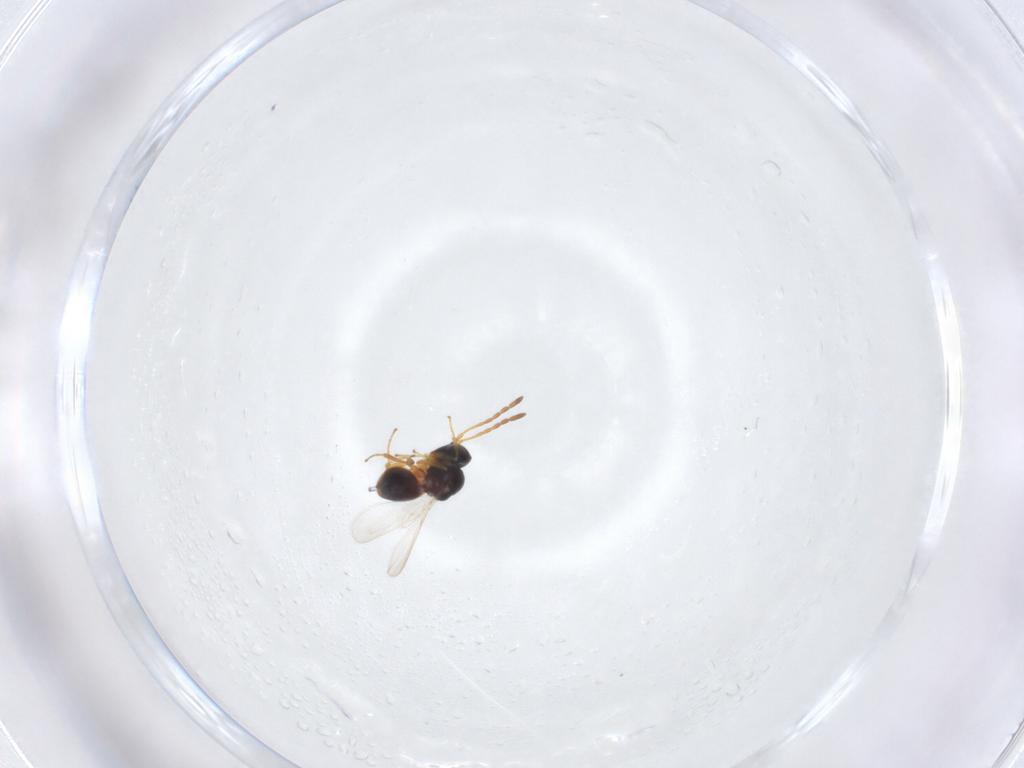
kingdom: Animalia
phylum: Arthropoda
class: Insecta
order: Hymenoptera
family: Figitidae
